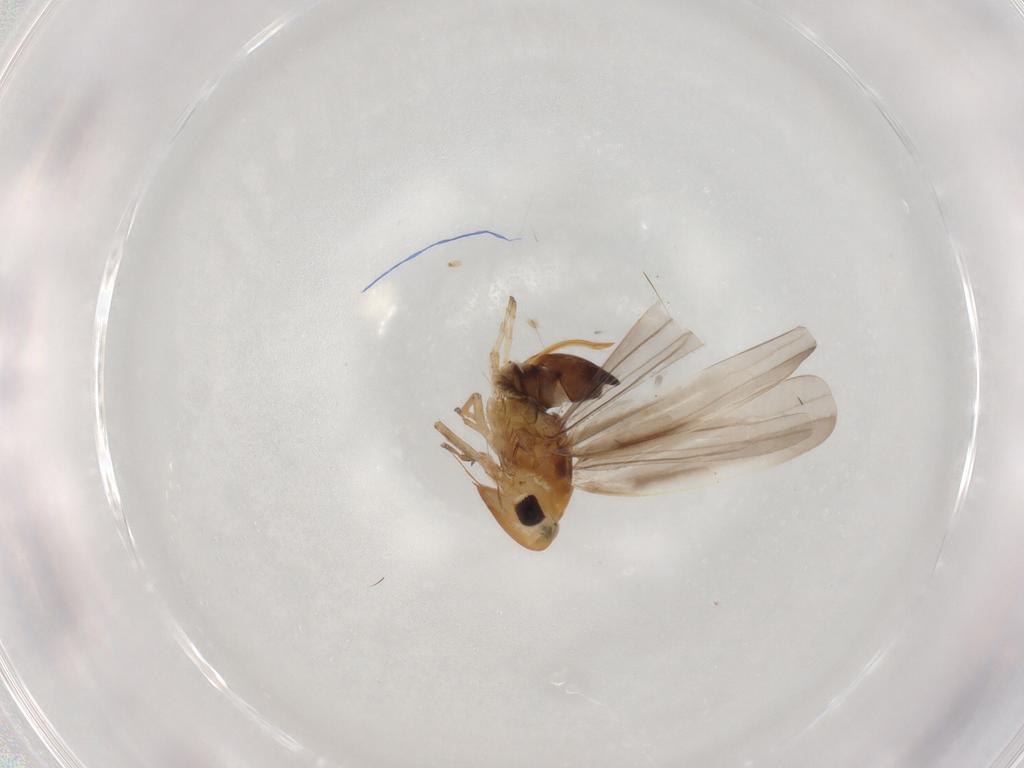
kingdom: Animalia
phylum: Arthropoda
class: Insecta
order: Hemiptera
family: Cicadellidae
